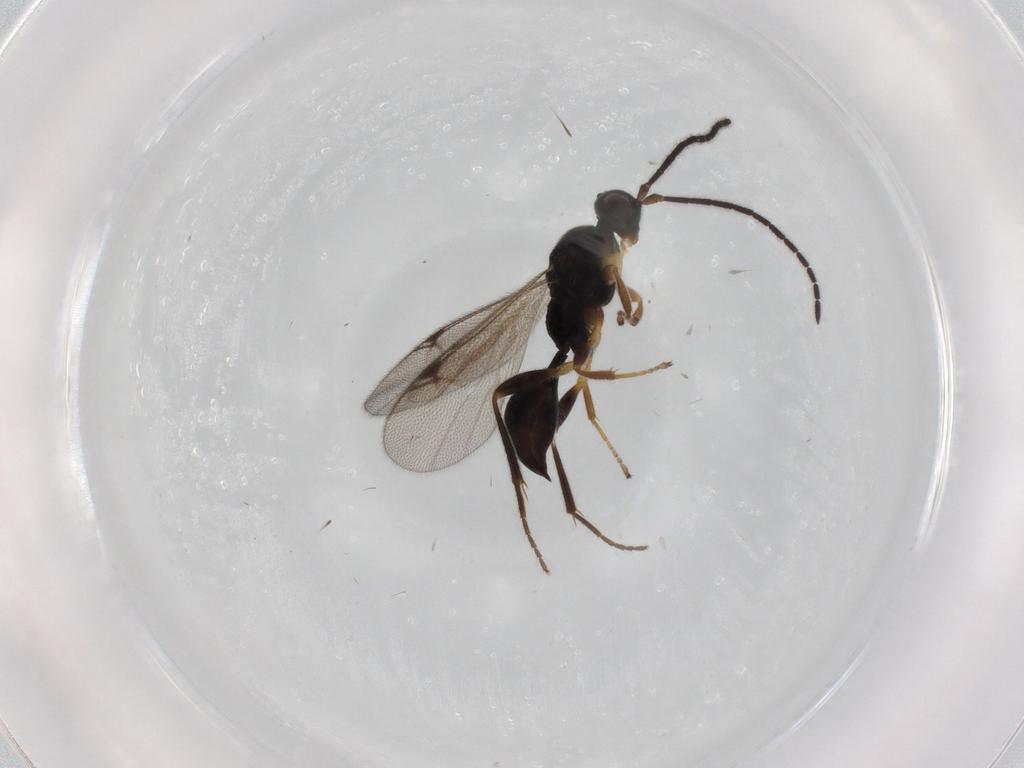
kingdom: Animalia
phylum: Arthropoda
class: Insecta
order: Hymenoptera
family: Proctotrupidae
